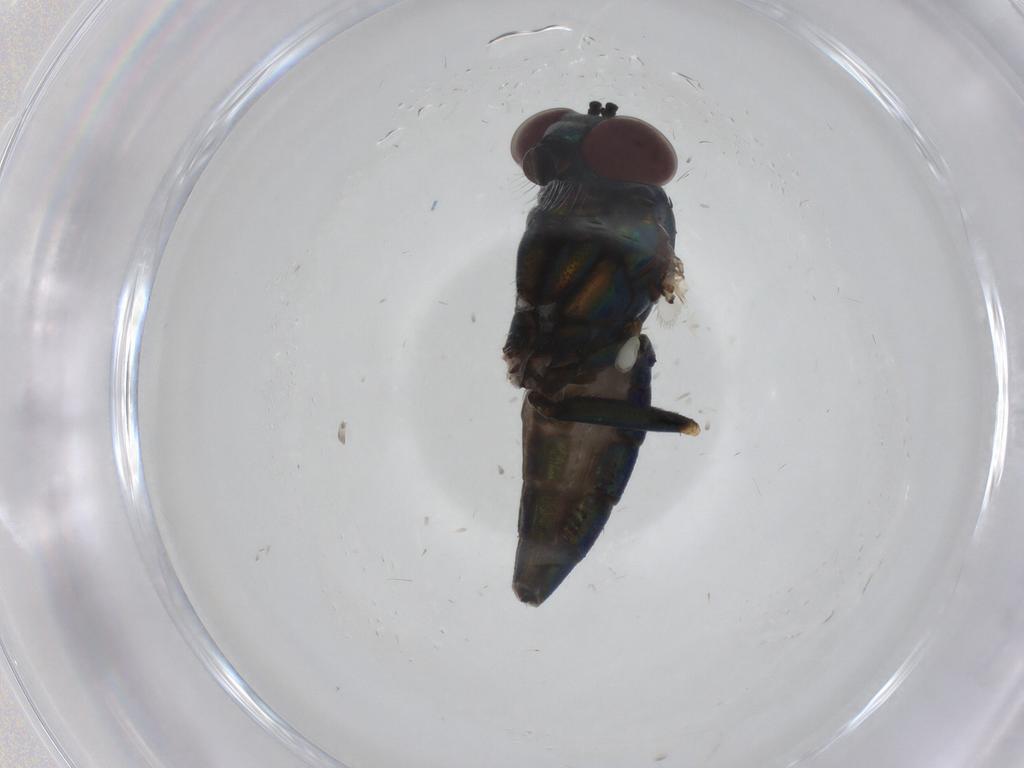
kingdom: Animalia
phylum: Arthropoda
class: Insecta
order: Diptera
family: Dolichopodidae
